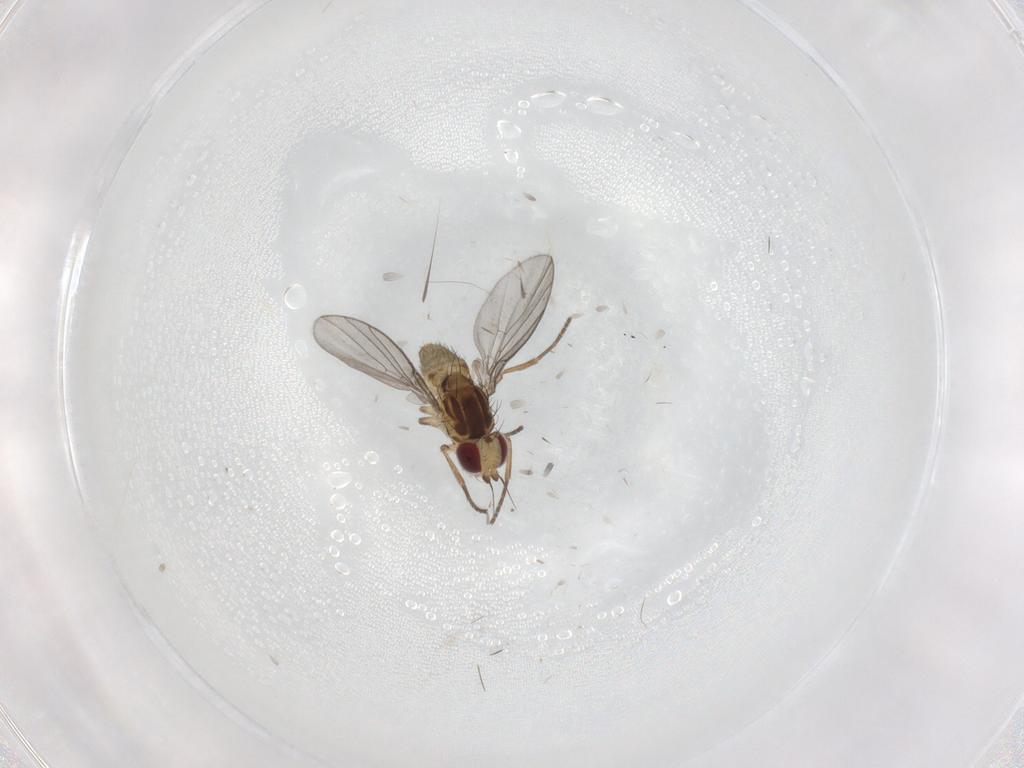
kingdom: Animalia
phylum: Arthropoda
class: Insecta
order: Diptera
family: Agromyzidae
